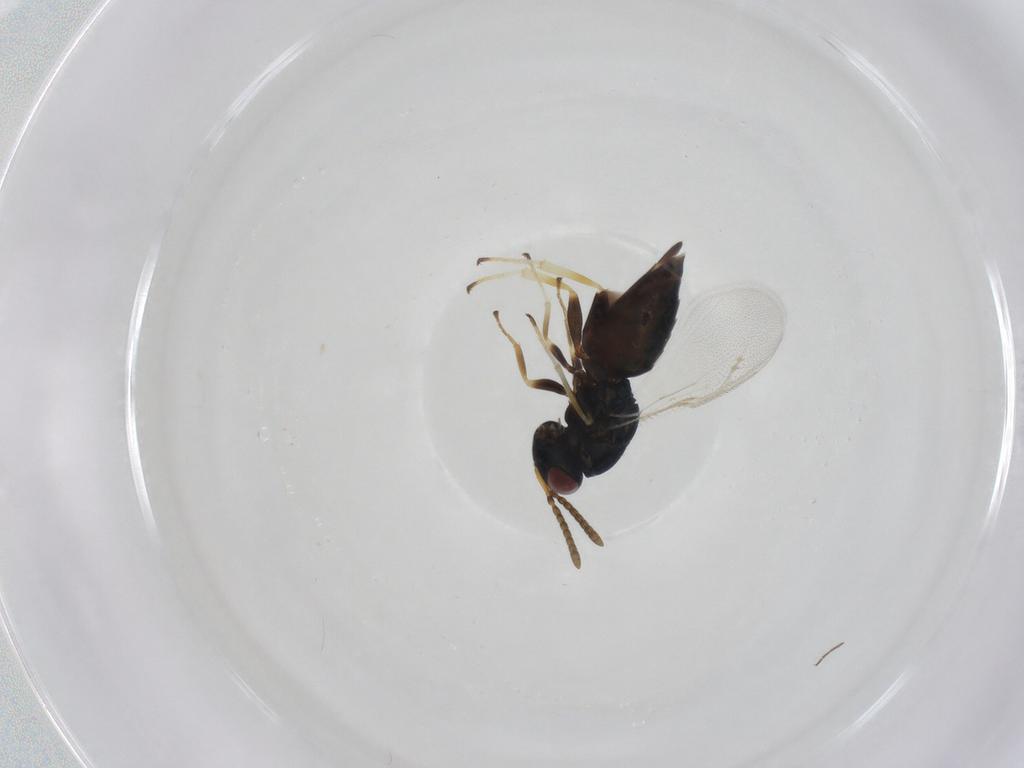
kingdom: Animalia
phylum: Arthropoda
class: Insecta
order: Hymenoptera
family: Pteromalidae
